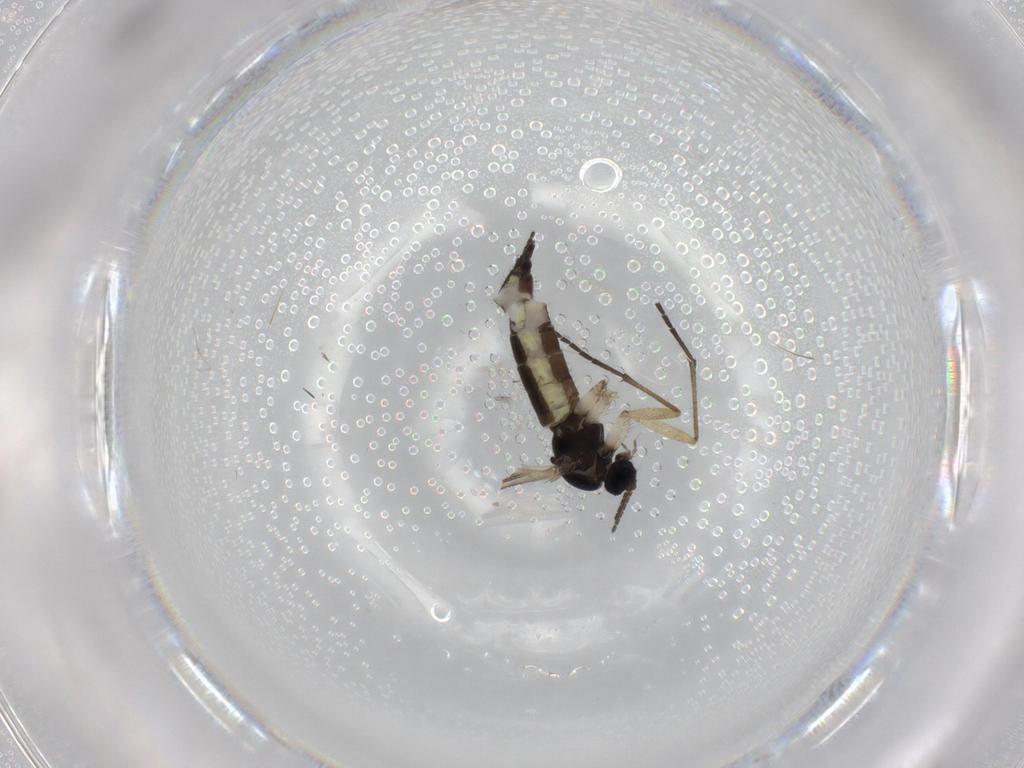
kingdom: Animalia
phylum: Arthropoda
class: Insecta
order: Diptera
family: Sciaridae
